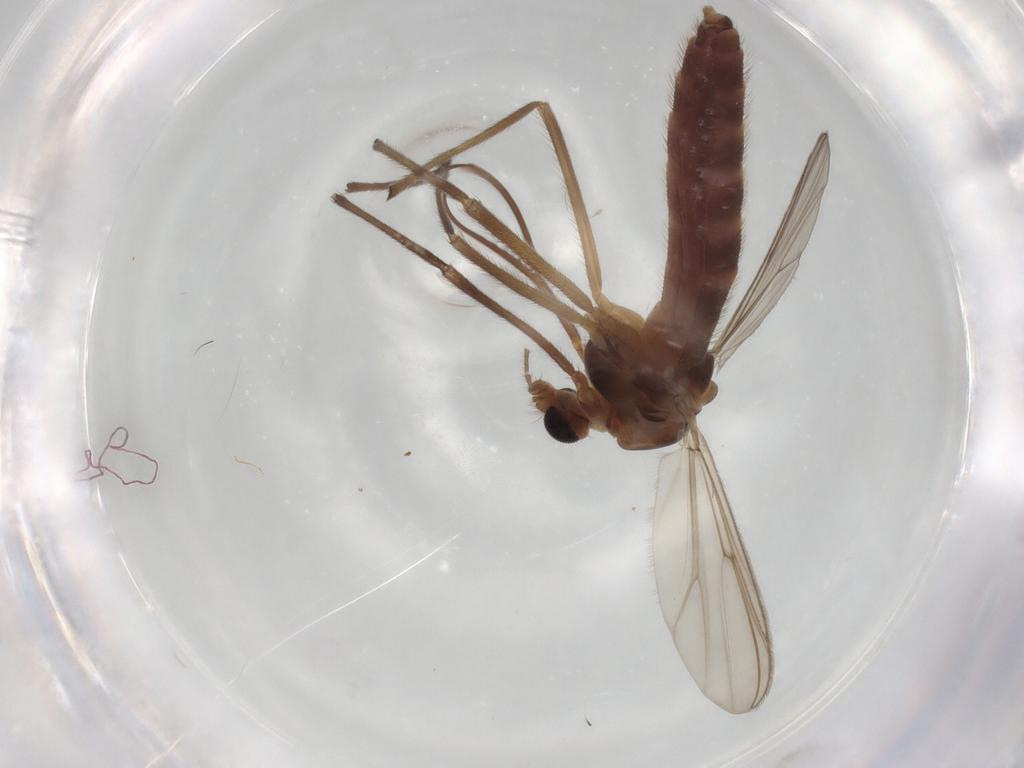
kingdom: Animalia
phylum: Arthropoda
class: Insecta
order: Diptera
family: Chironomidae
